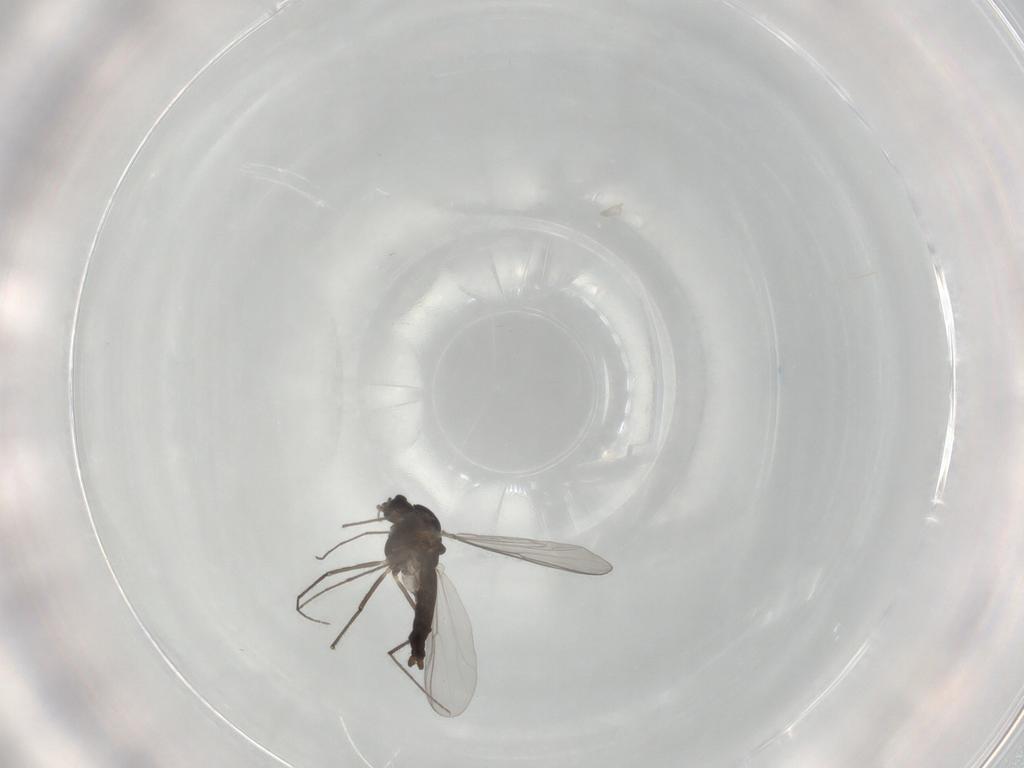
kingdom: Animalia
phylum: Arthropoda
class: Insecta
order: Diptera
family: Chironomidae
